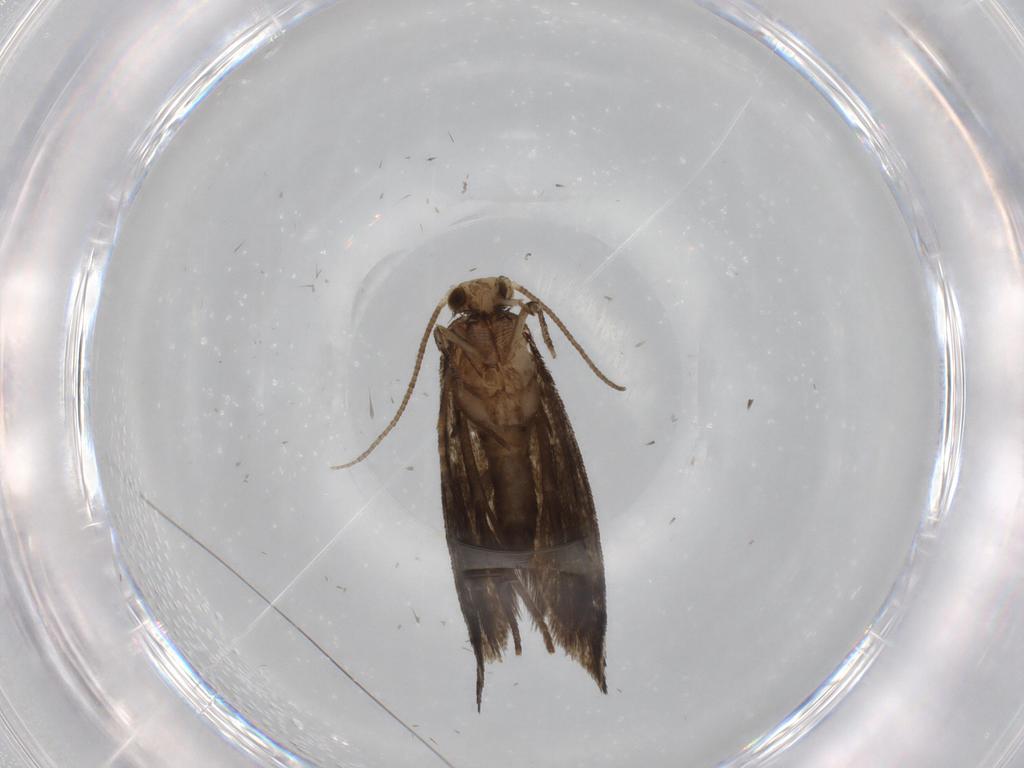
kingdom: Animalia
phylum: Arthropoda
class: Insecta
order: Lepidoptera
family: Tineidae
